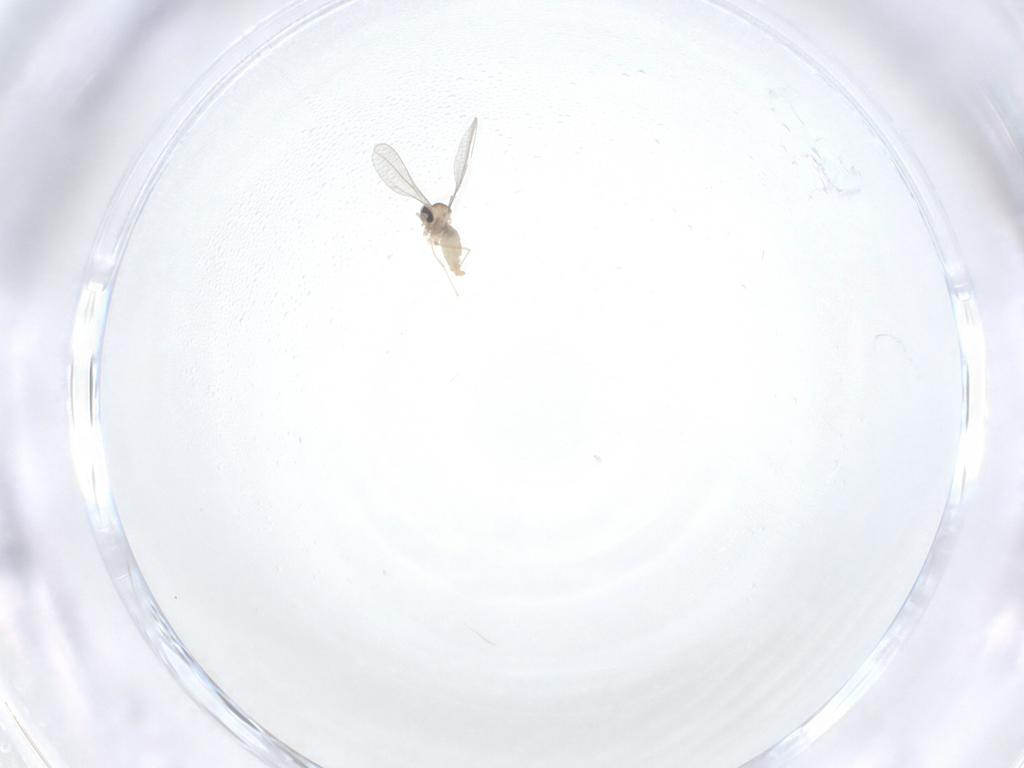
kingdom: Animalia
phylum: Arthropoda
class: Insecta
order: Diptera
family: Cecidomyiidae
